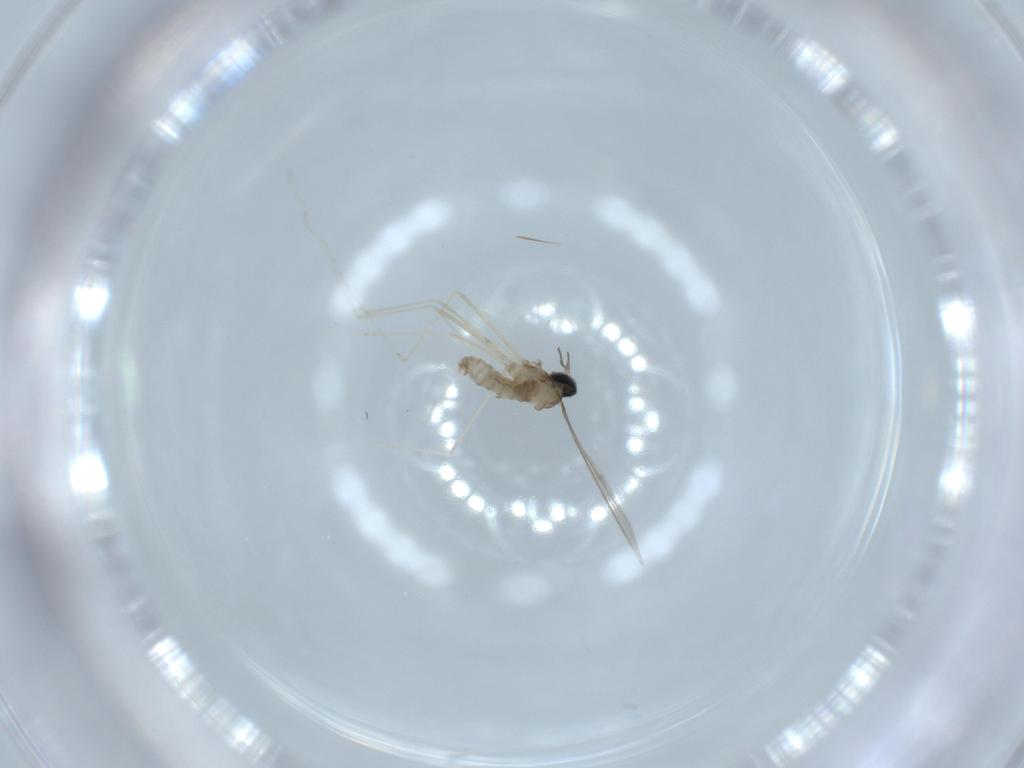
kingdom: Animalia
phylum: Arthropoda
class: Insecta
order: Diptera
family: Cecidomyiidae
